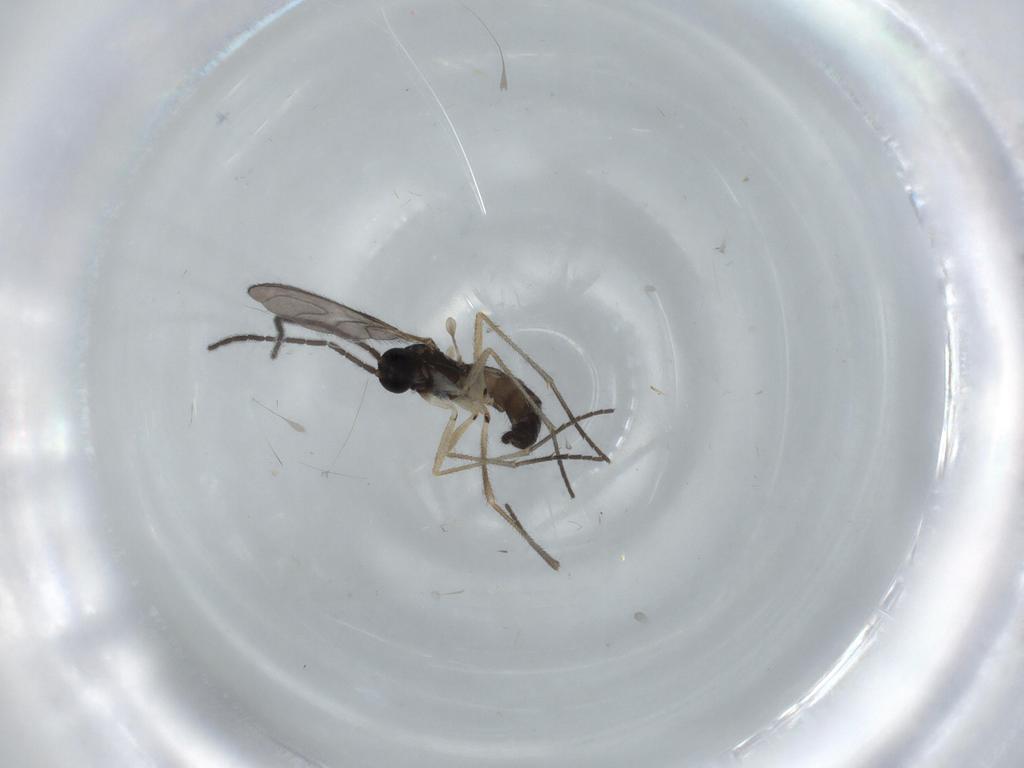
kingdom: Animalia
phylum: Arthropoda
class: Insecta
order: Diptera
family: Sciaridae
